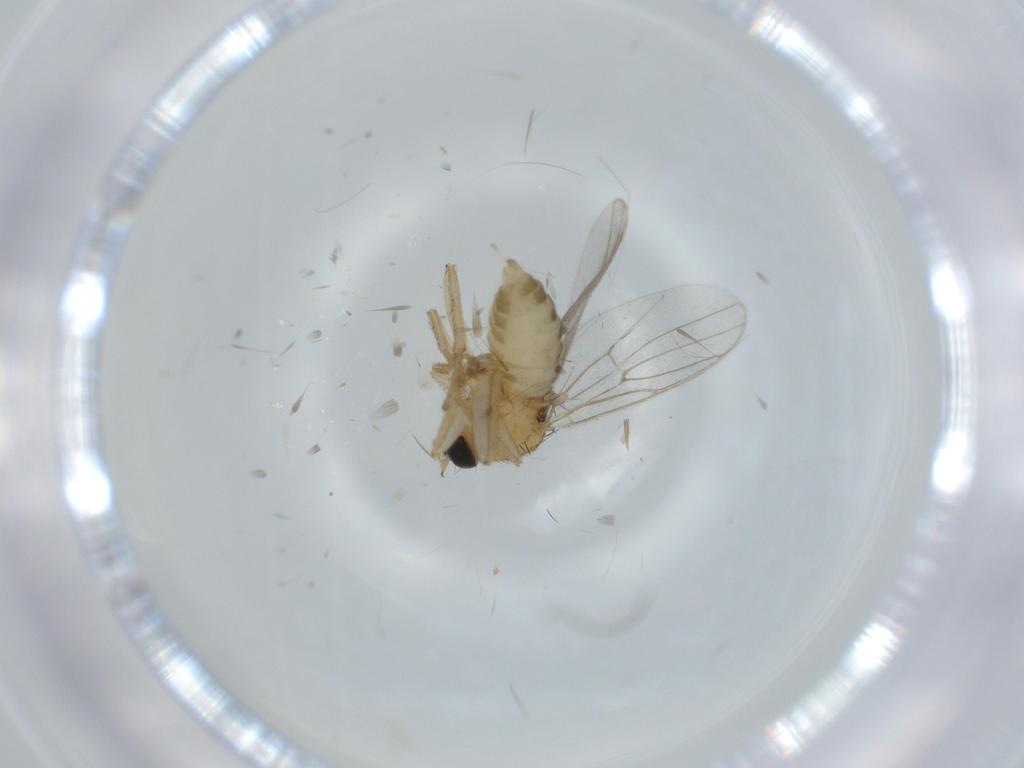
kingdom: Animalia
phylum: Arthropoda
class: Insecta
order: Diptera
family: Hybotidae
